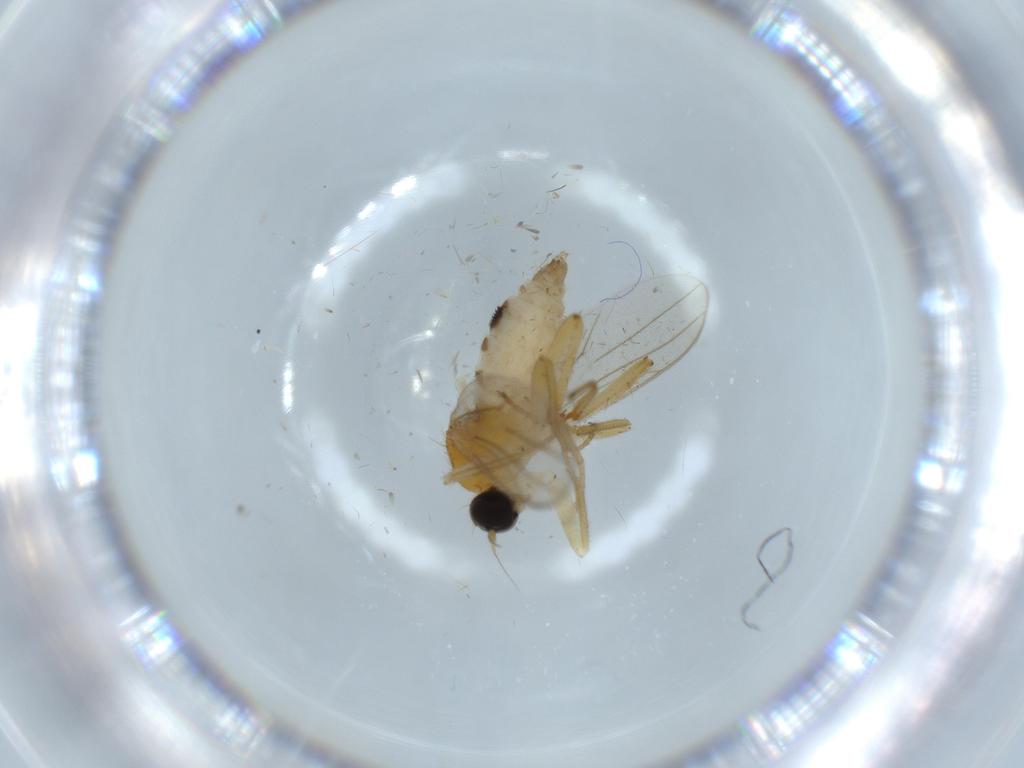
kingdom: Animalia
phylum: Arthropoda
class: Insecta
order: Diptera
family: Hybotidae
